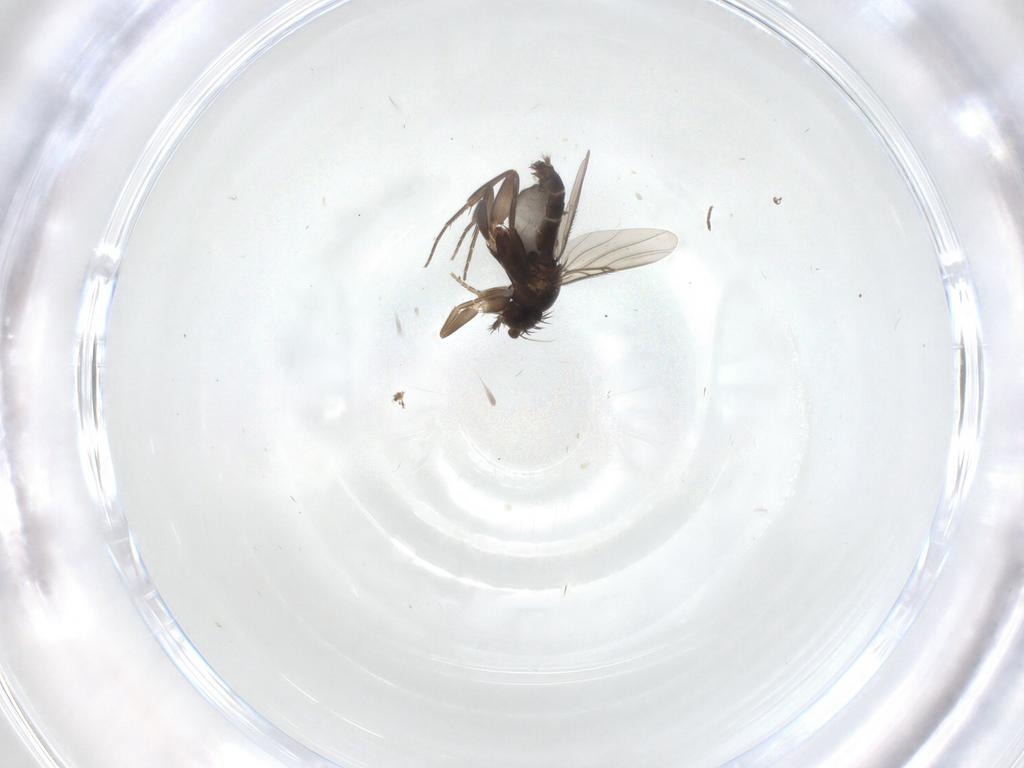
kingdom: Animalia
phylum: Arthropoda
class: Insecta
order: Diptera
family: Phoridae
